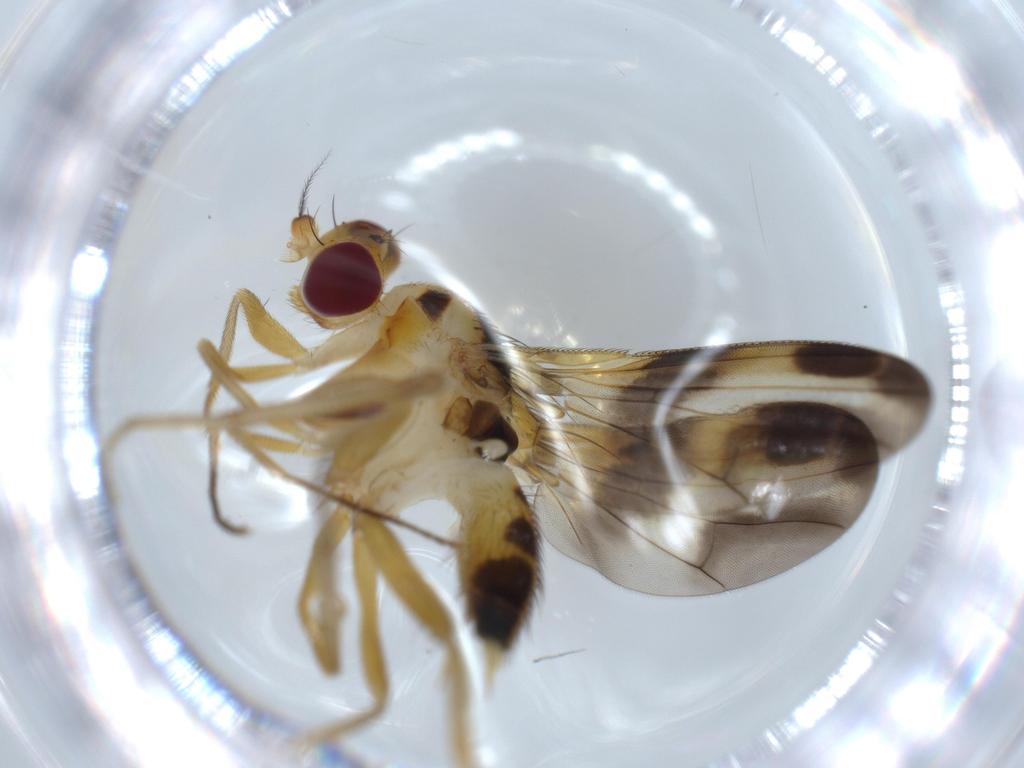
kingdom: Animalia
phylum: Arthropoda
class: Insecta
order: Diptera
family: Clusiidae
